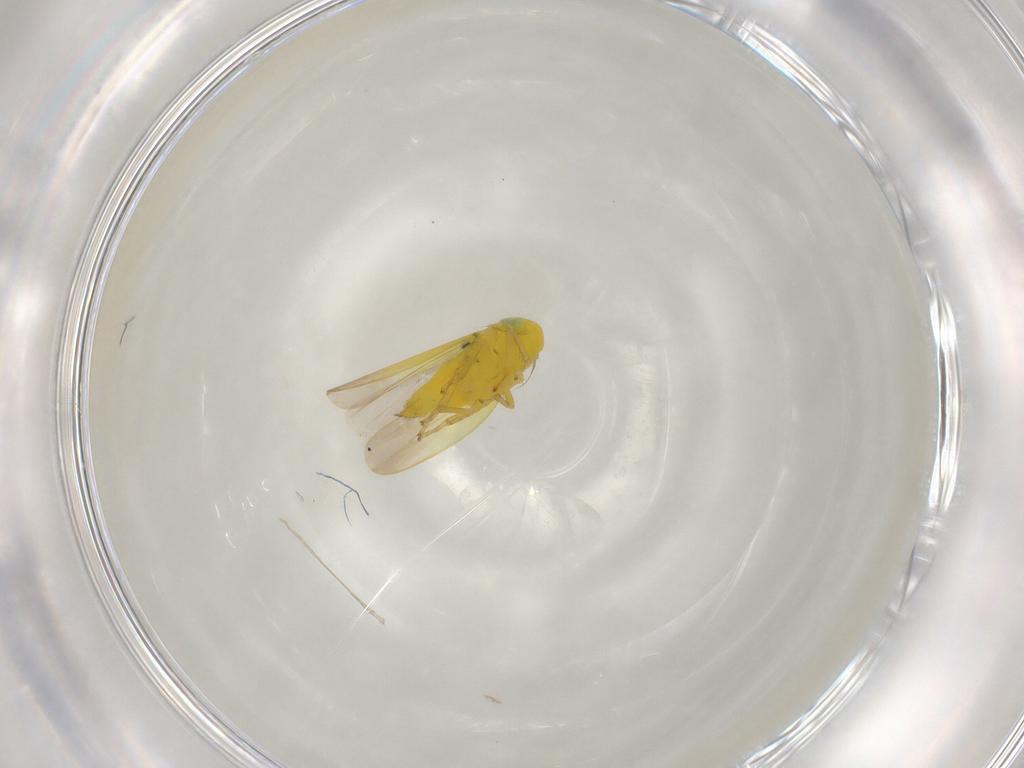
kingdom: Animalia
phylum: Arthropoda
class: Insecta
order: Hemiptera
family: Cicadellidae
